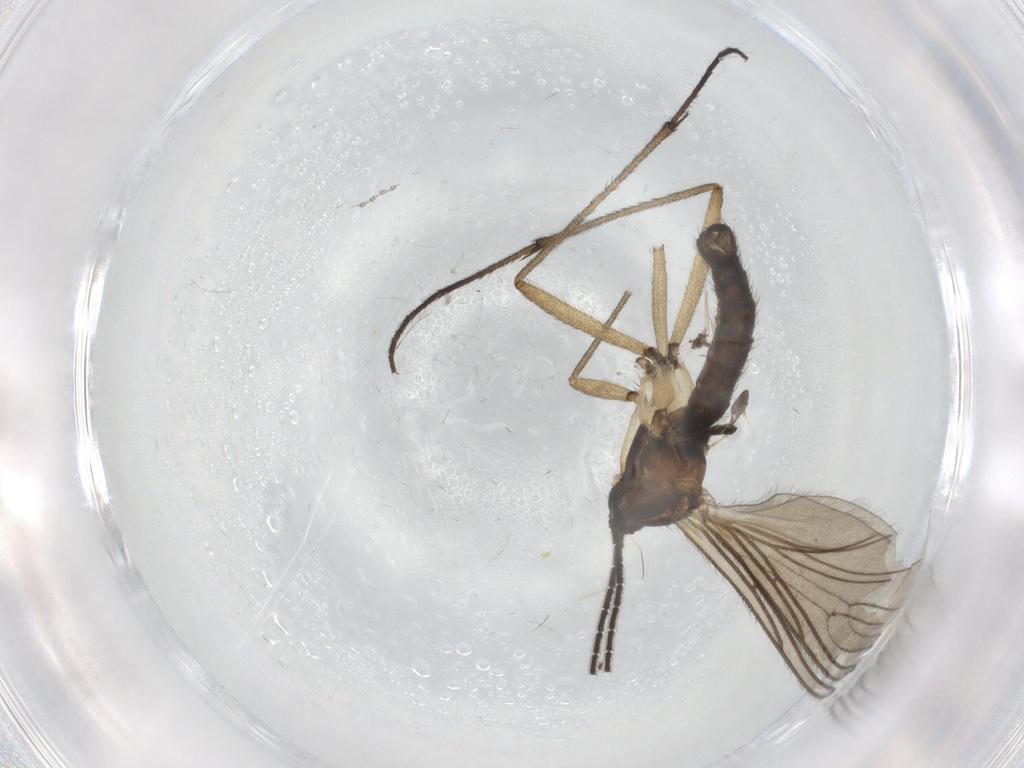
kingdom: Animalia
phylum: Arthropoda
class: Insecta
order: Diptera
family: Sciaridae
